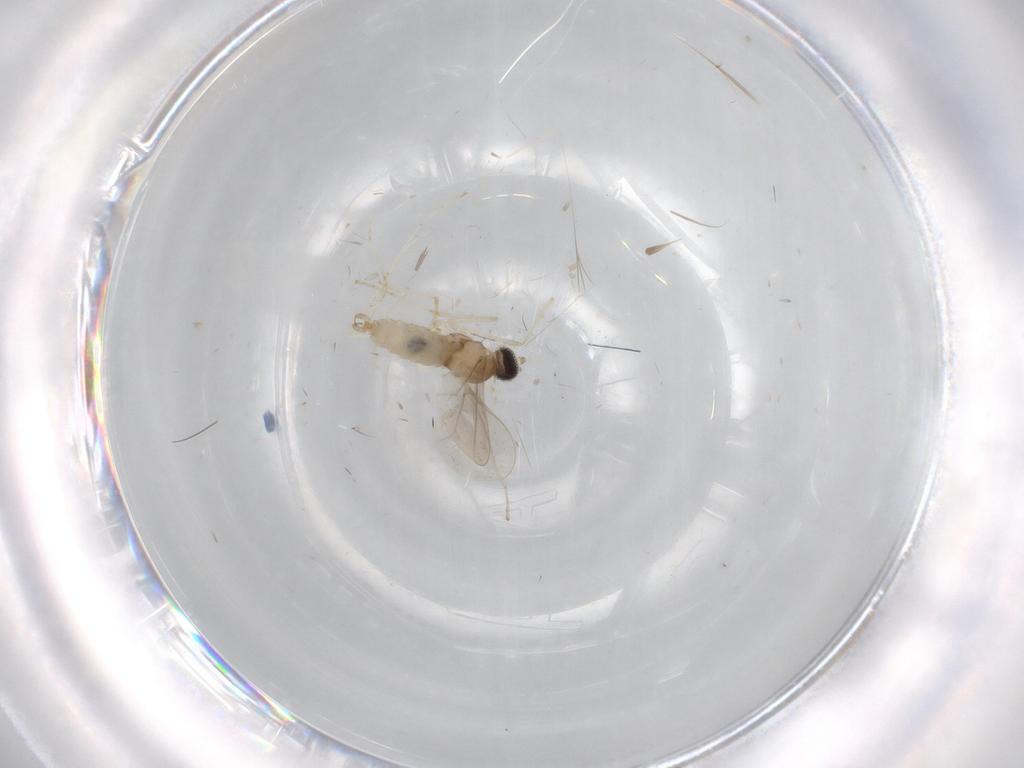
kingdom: Animalia
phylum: Arthropoda
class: Insecta
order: Diptera
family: Cecidomyiidae
